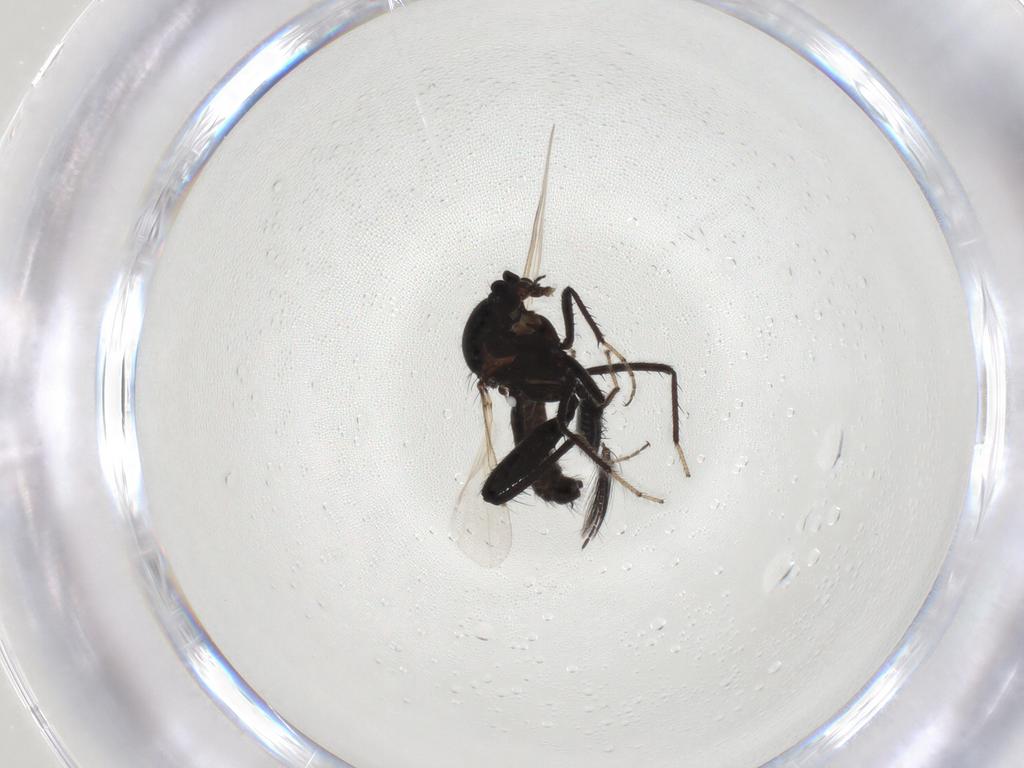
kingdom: Animalia
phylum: Arthropoda
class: Insecta
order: Diptera
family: Ceratopogonidae
